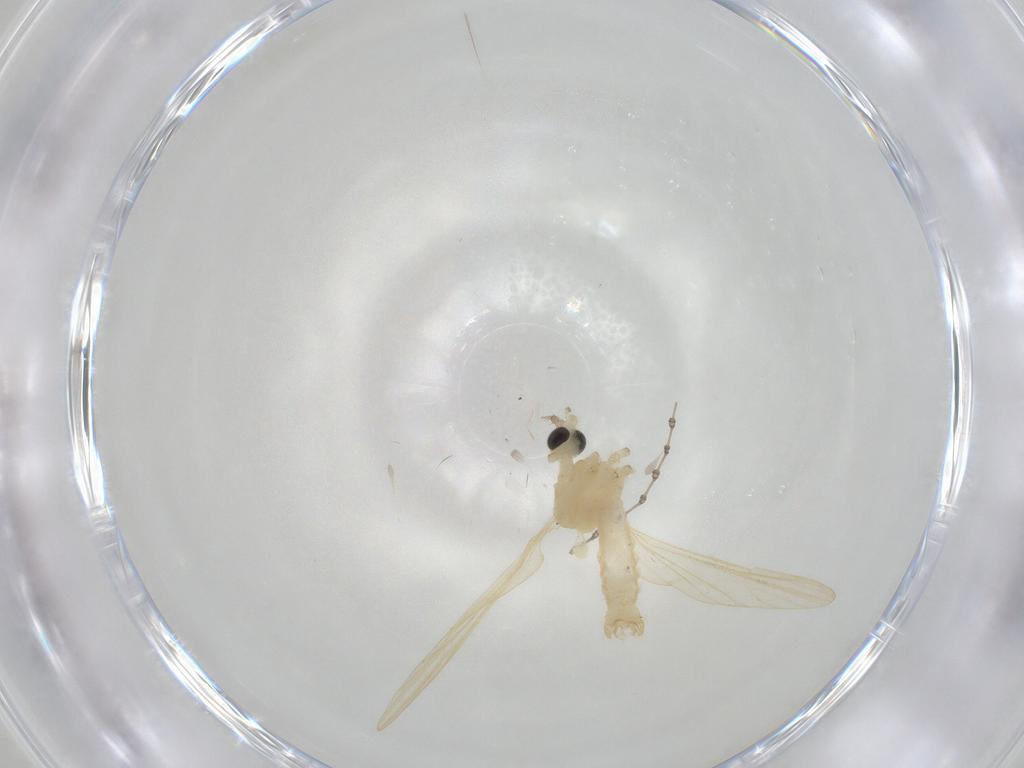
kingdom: Animalia
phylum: Arthropoda
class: Insecta
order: Diptera
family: Limoniidae
